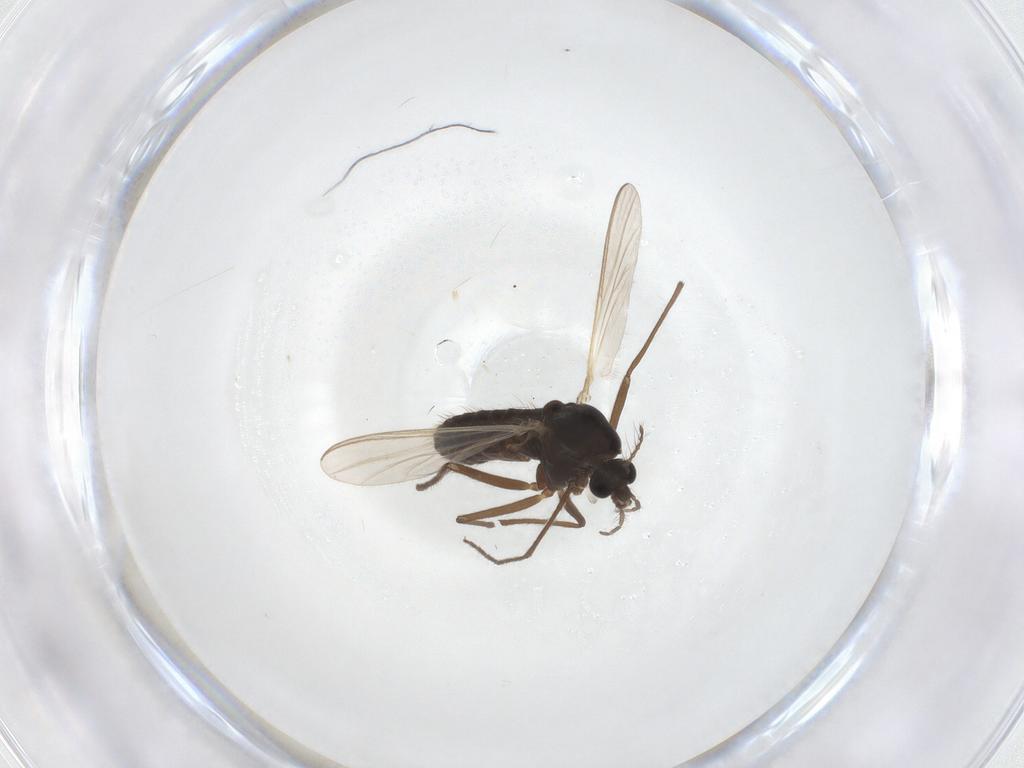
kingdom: Animalia
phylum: Arthropoda
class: Insecta
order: Diptera
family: Chironomidae
